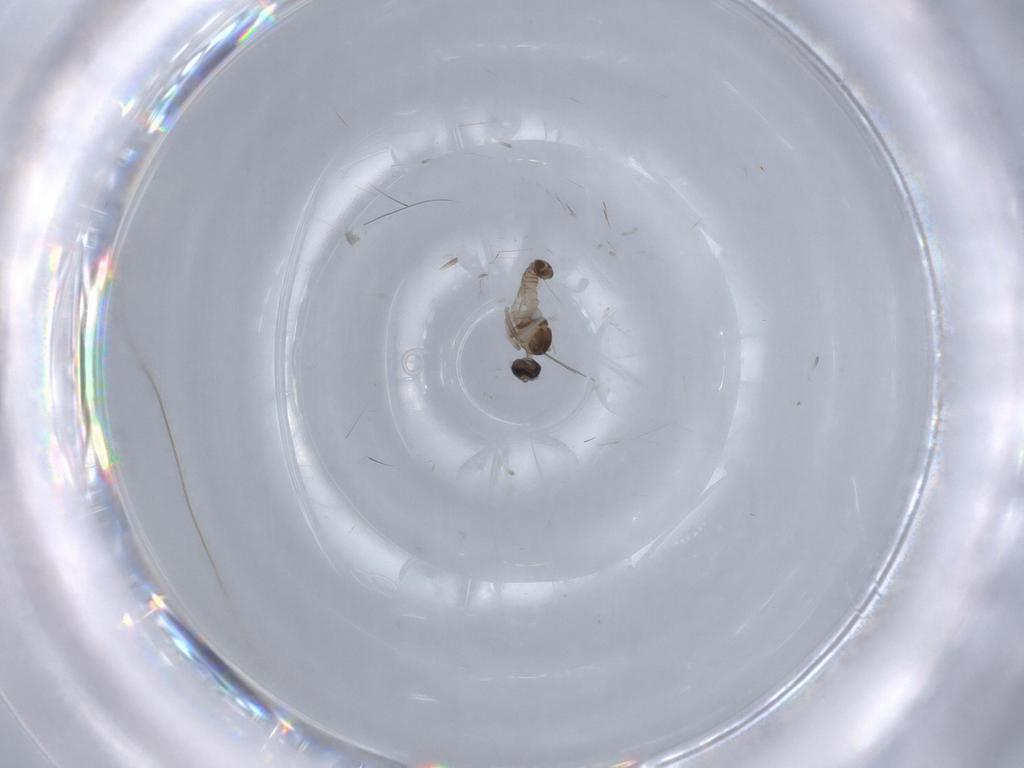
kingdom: Animalia
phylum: Arthropoda
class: Insecta
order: Diptera
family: Cecidomyiidae
